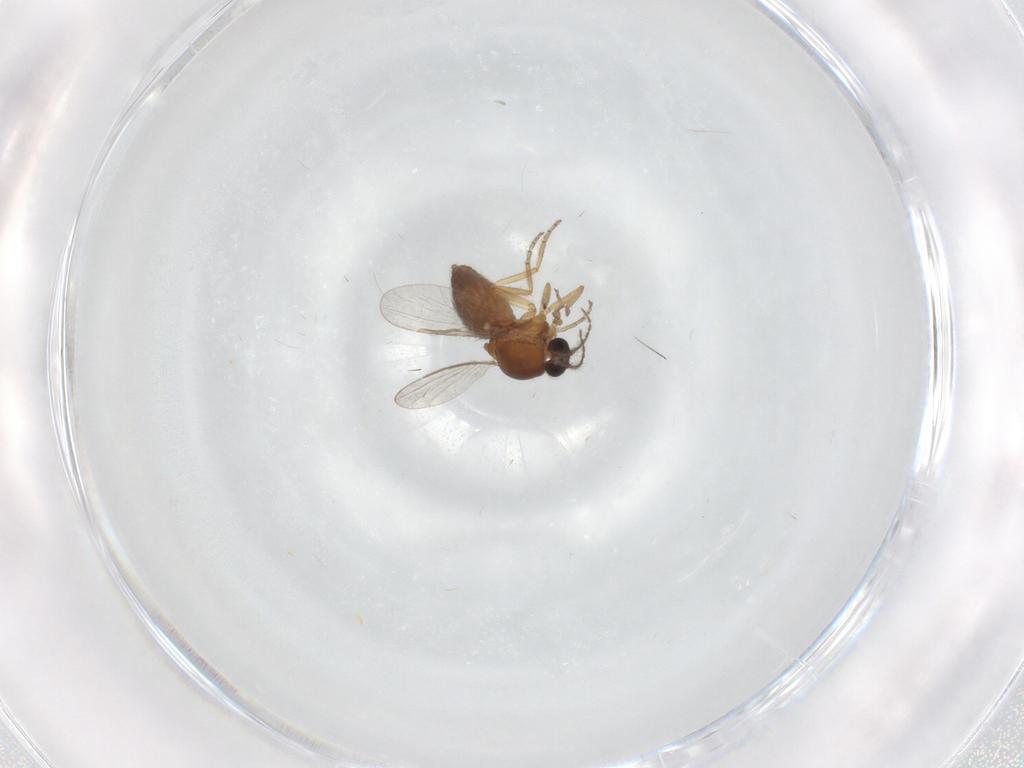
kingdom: Animalia
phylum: Arthropoda
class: Insecta
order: Diptera
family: Ceratopogonidae
